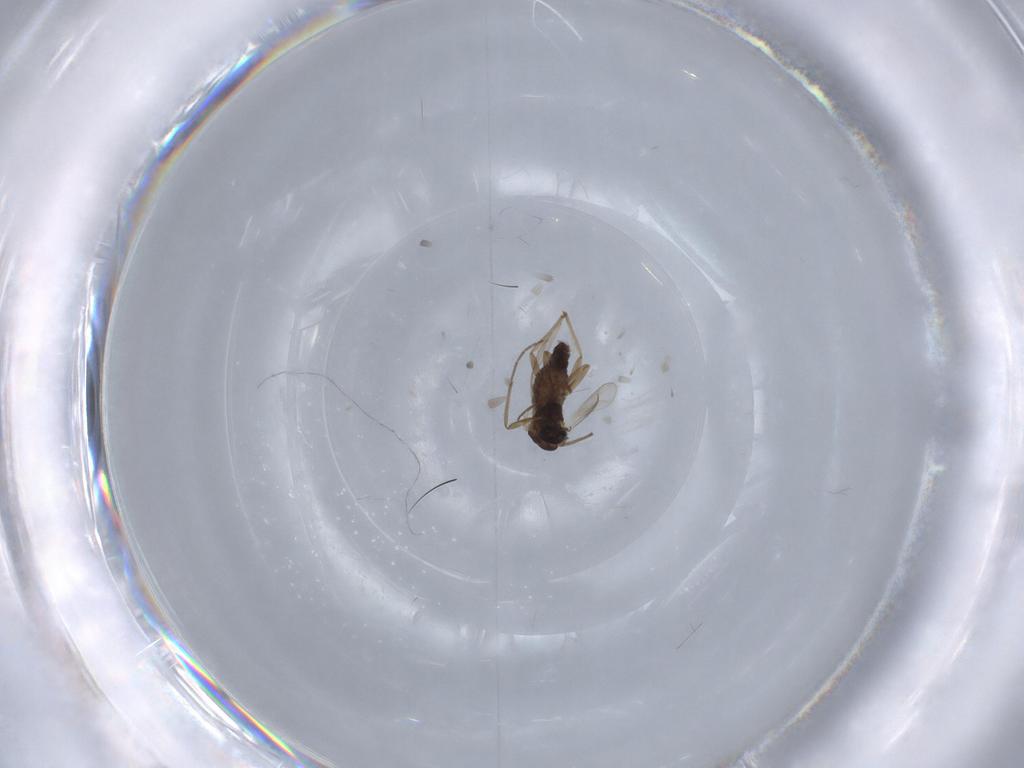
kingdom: Animalia
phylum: Arthropoda
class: Insecta
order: Diptera
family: Chironomidae
